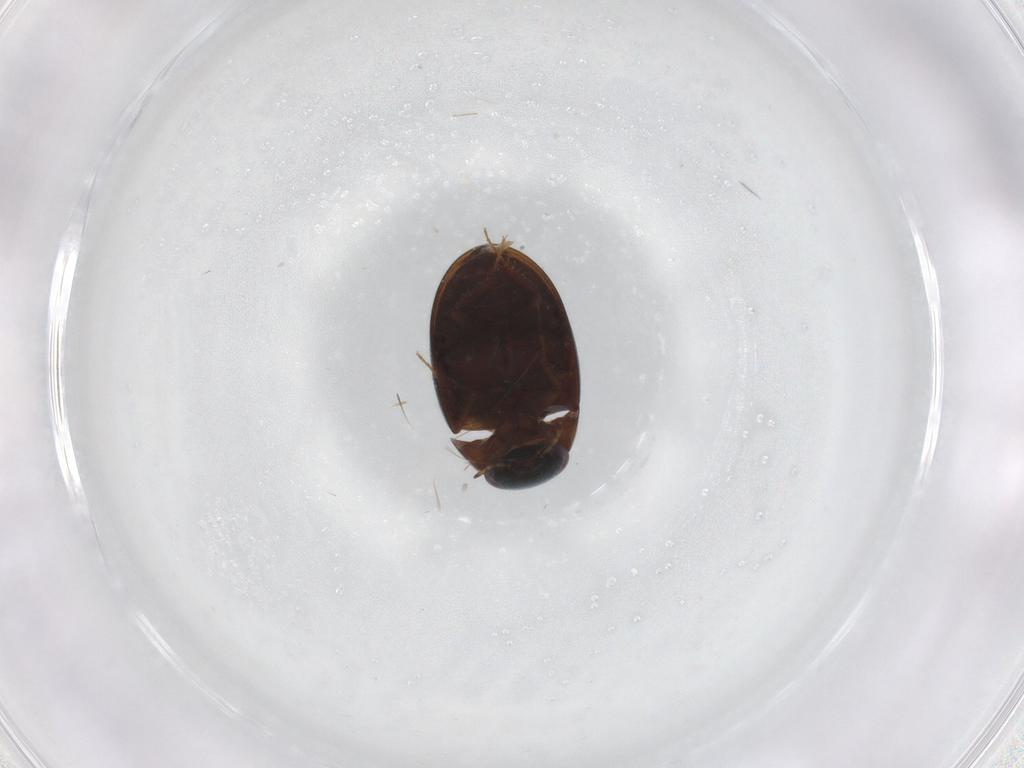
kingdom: Animalia
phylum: Arthropoda
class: Insecta
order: Coleoptera
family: Hydrophilidae
